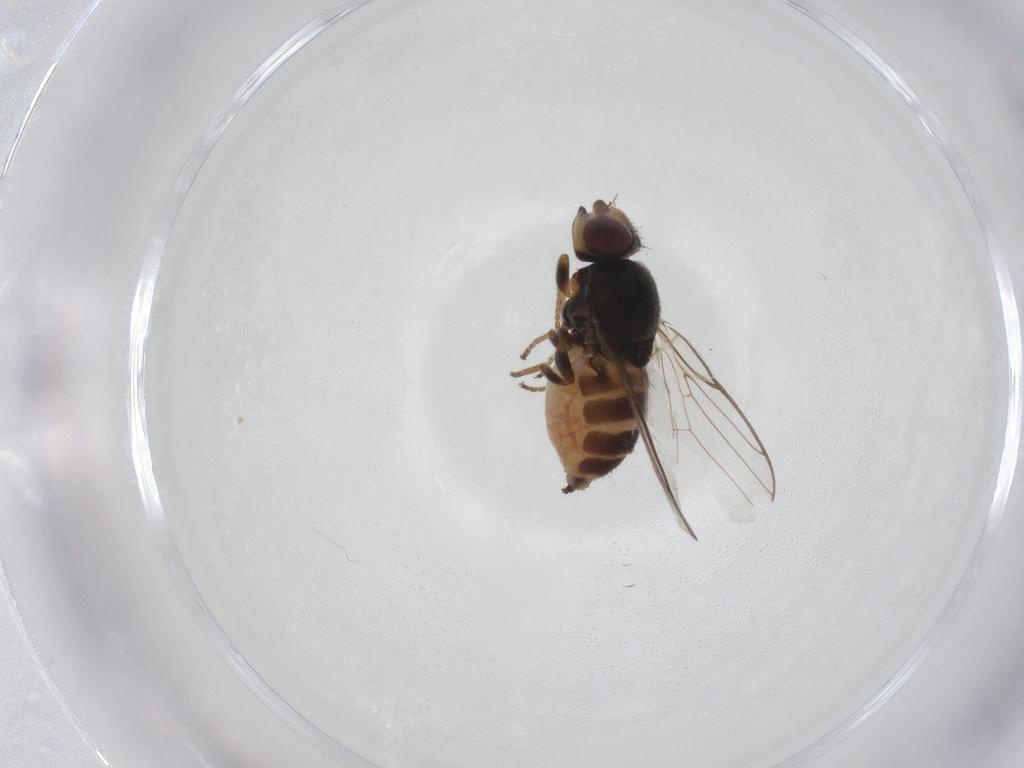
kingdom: Animalia
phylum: Arthropoda
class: Insecta
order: Diptera
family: Chloropidae
